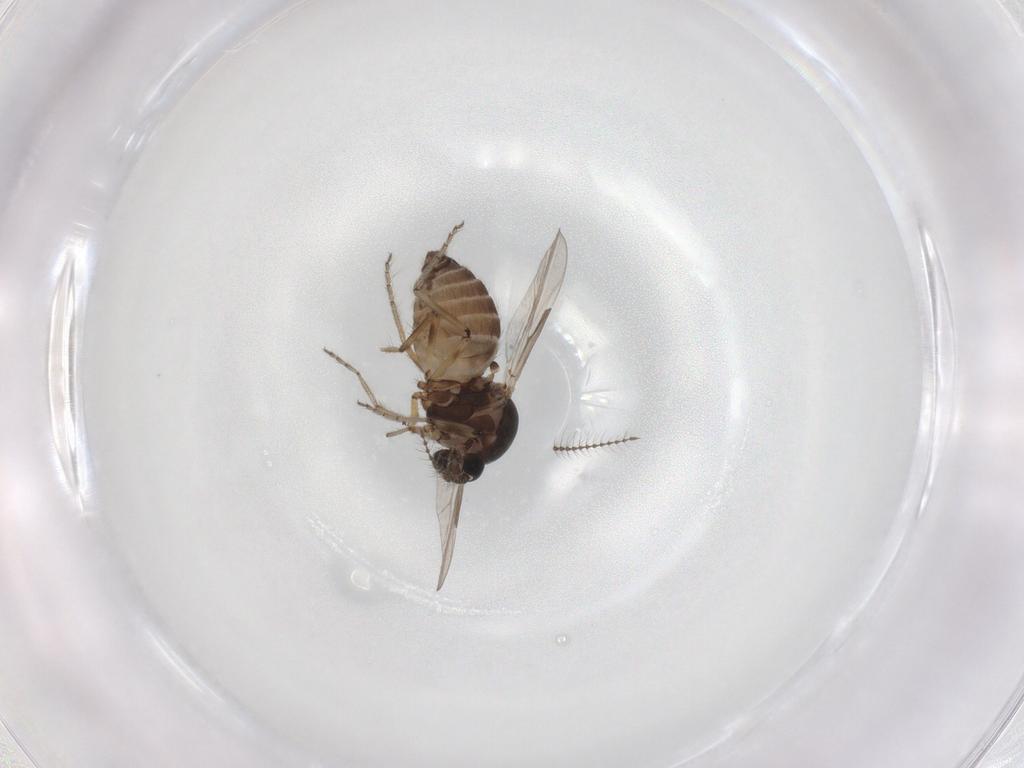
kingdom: Animalia
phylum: Arthropoda
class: Insecta
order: Diptera
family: Ceratopogonidae
